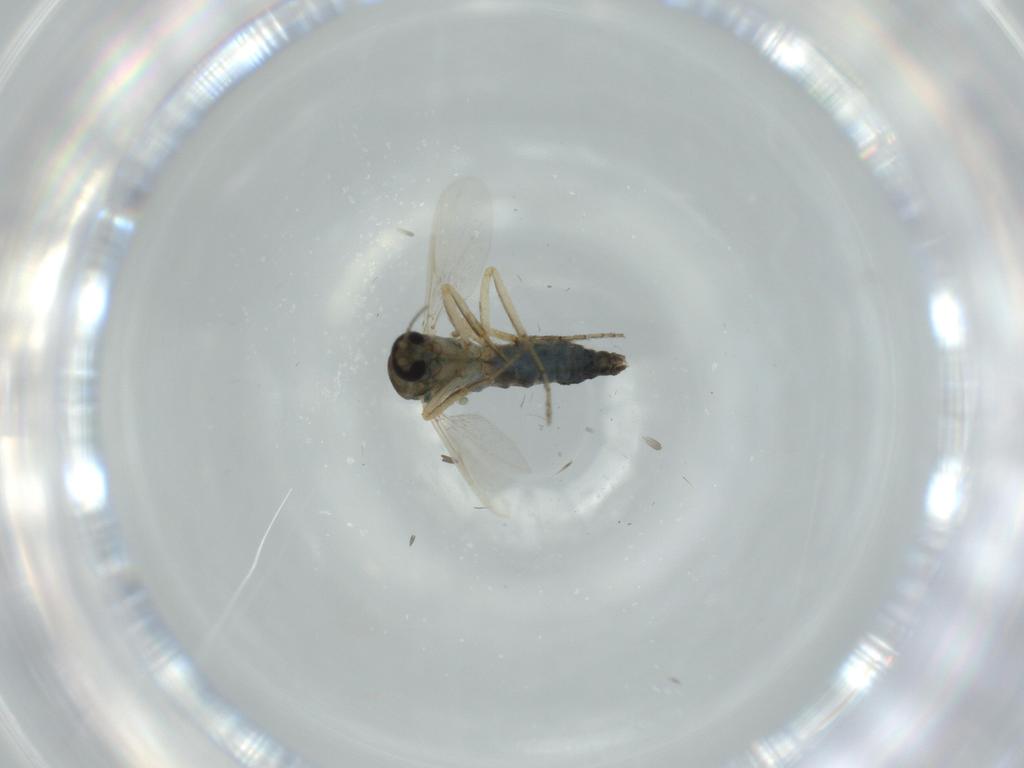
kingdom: Animalia
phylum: Arthropoda
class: Insecta
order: Diptera
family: Ceratopogonidae
